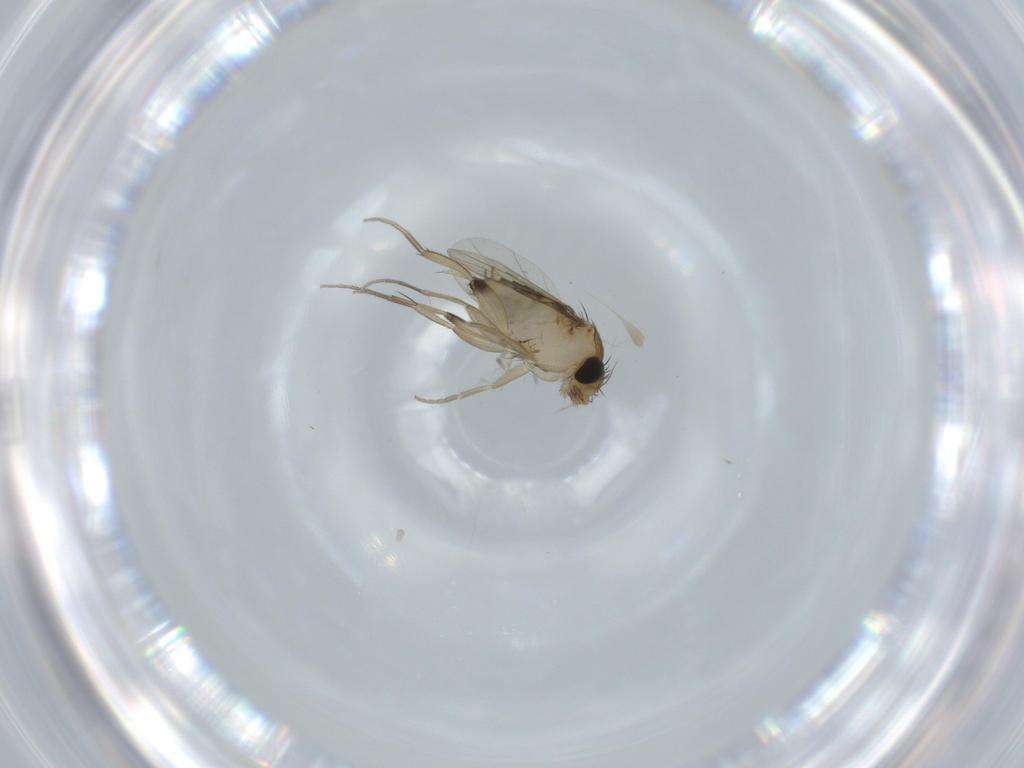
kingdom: Animalia
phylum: Arthropoda
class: Insecta
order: Diptera
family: Phoridae
